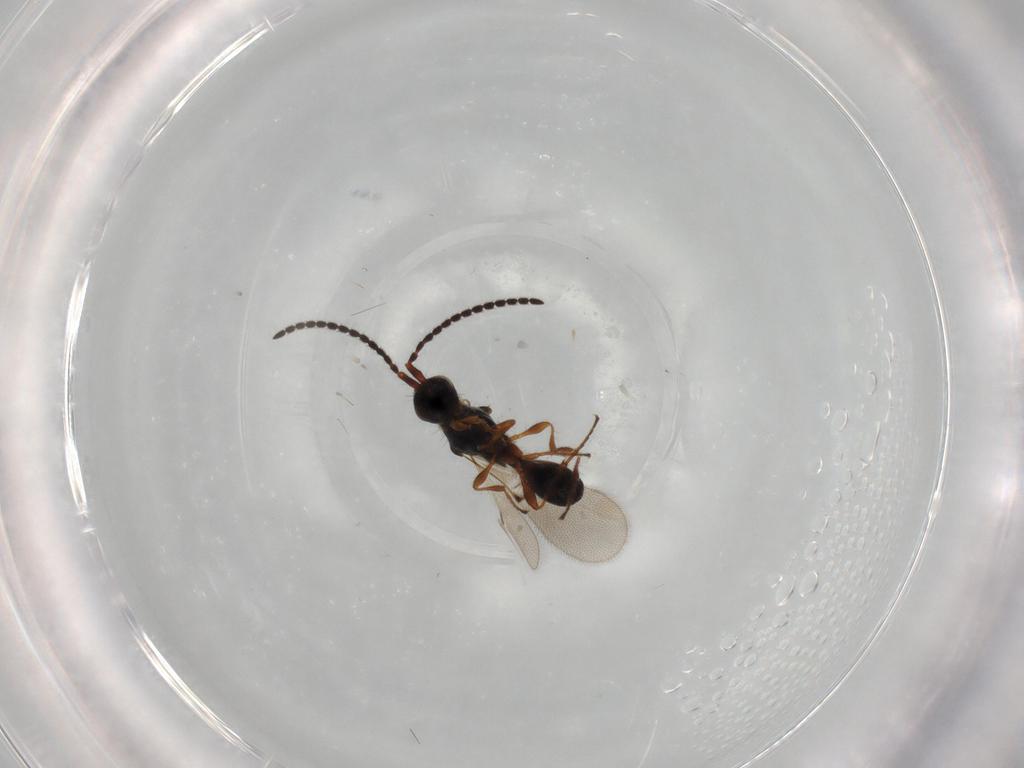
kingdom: Animalia
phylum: Arthropoda
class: Insecta
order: Hymenoptera
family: Diapriidae
